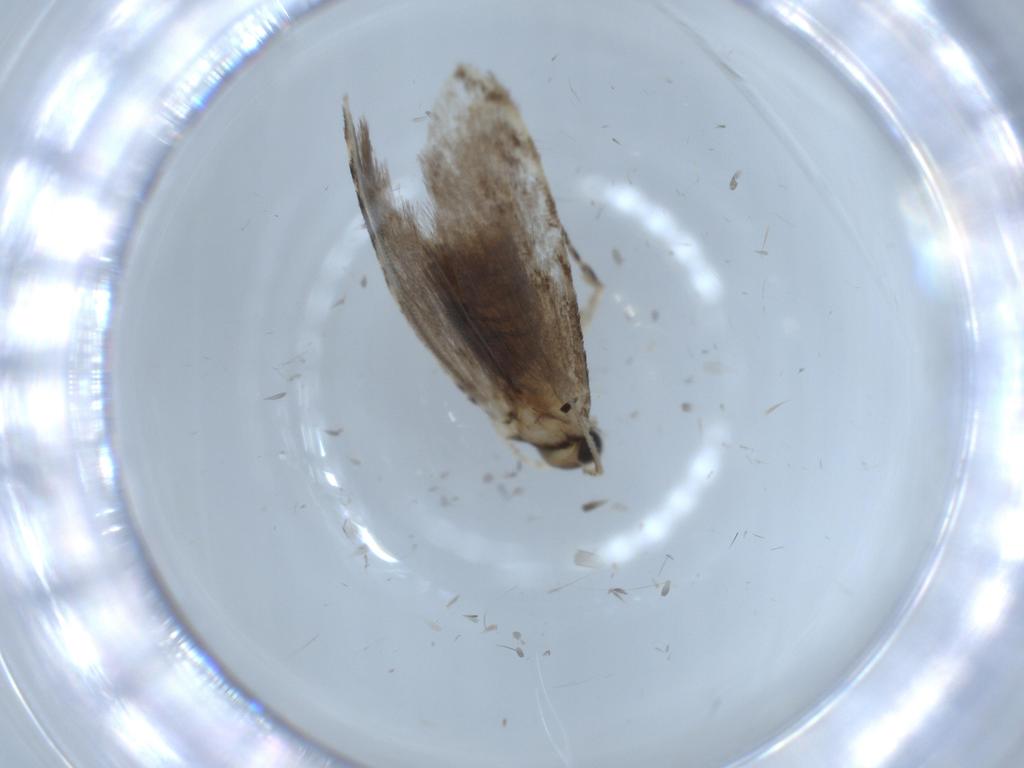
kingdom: Animalia
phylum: Arthropoda
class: Insecta
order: Lepidoptera
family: Tineidae
